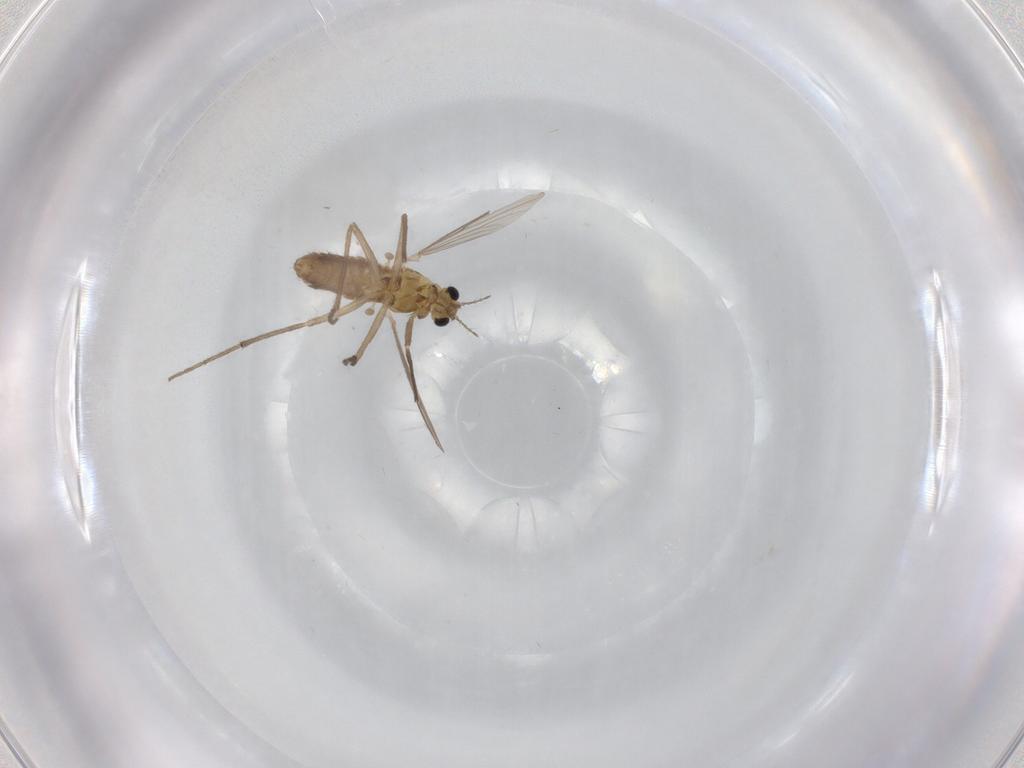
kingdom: Animalia
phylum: Arthropoda
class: Insecta
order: Diptera
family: Chironomidae
